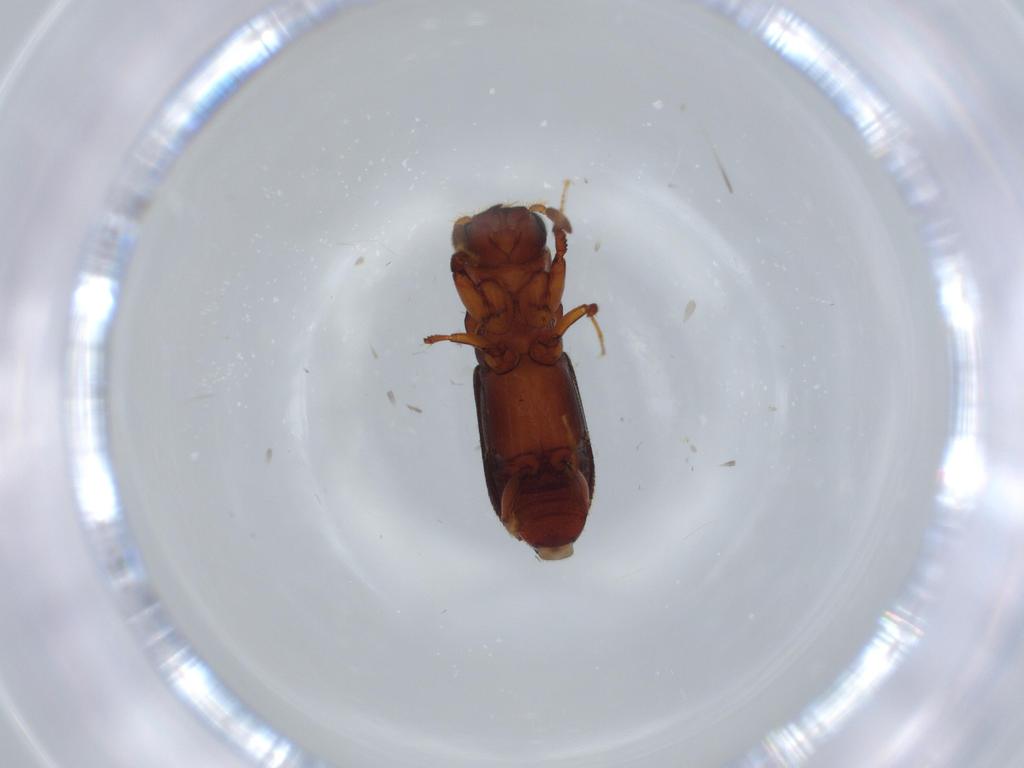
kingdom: Animalia
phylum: Arthropoda
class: Insecta
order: Coleoptera
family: Curculionidae
